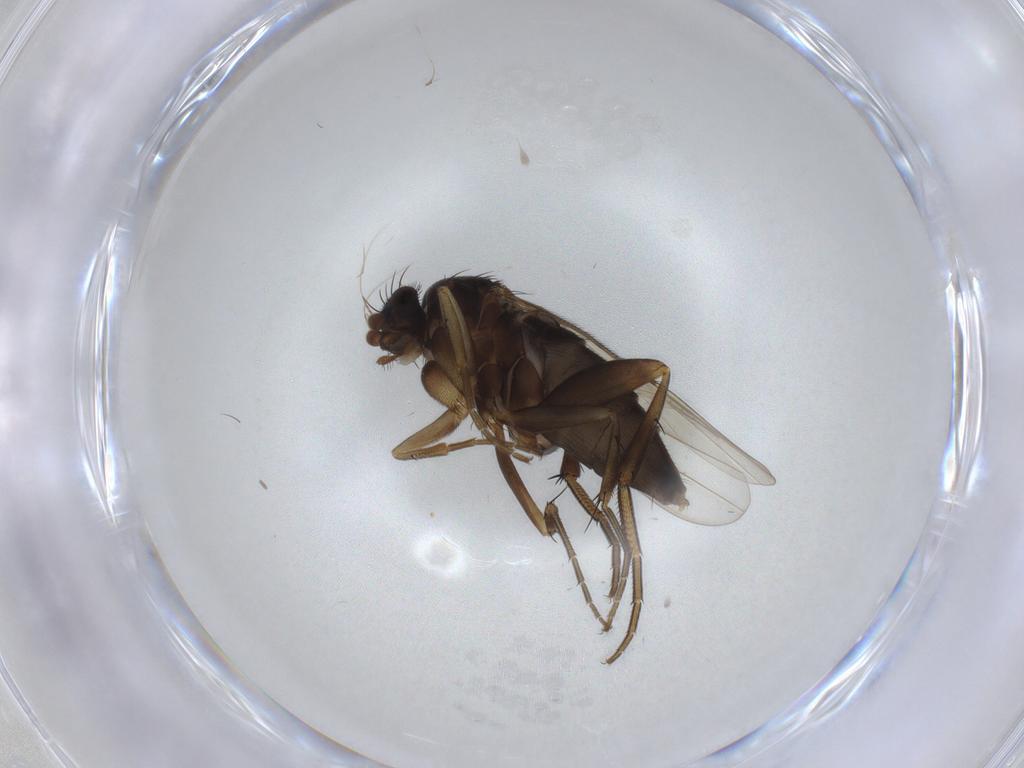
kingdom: Animalia
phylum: Arthropoda
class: Insecta
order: Diptera
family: Phoridae
